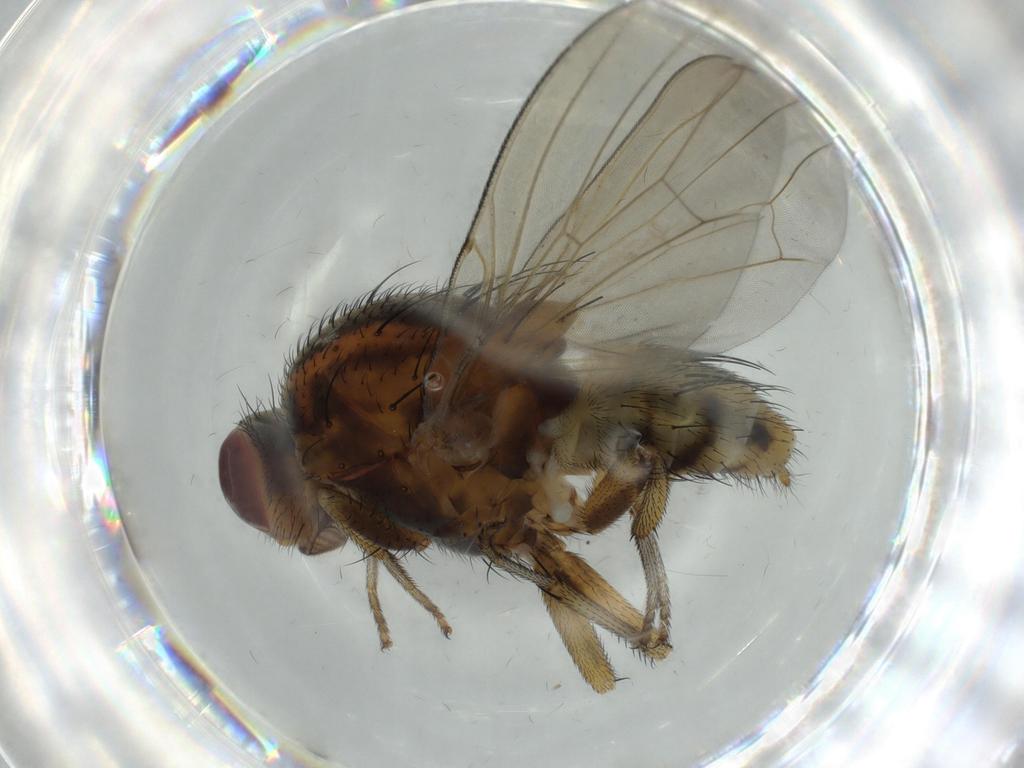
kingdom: Animalia
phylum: Arthropoda
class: Insecta
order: Diptera
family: Chironomidae
